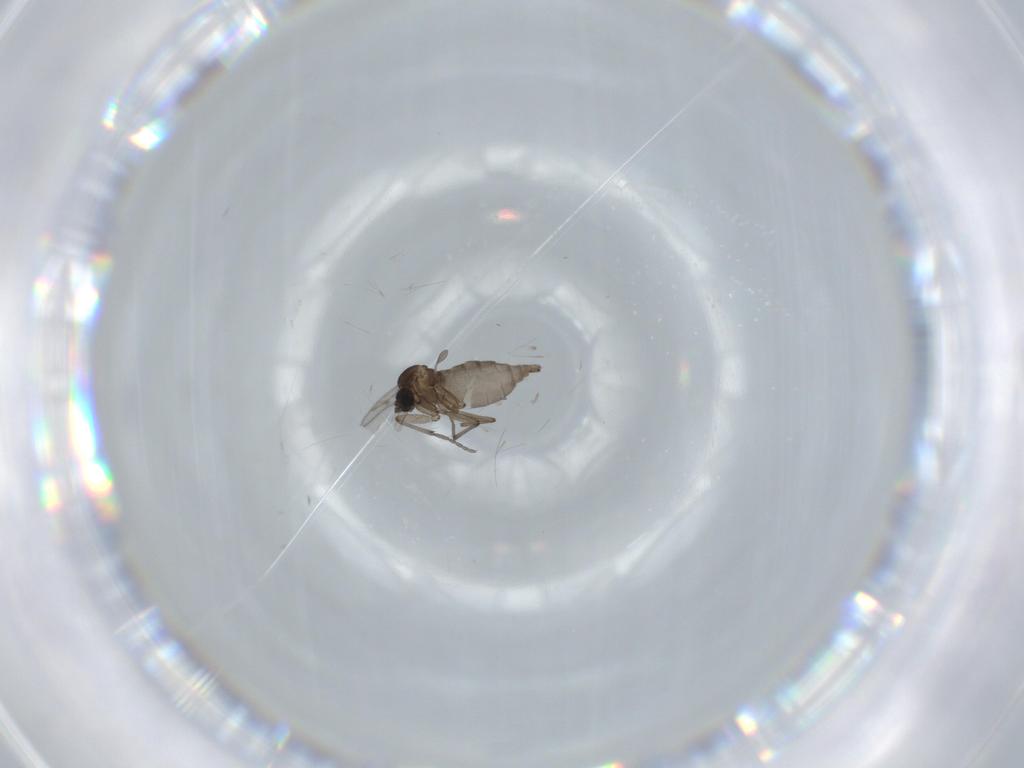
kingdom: Animalia
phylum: Arthropoda
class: Insecta
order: Diptera
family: Sciaridae
